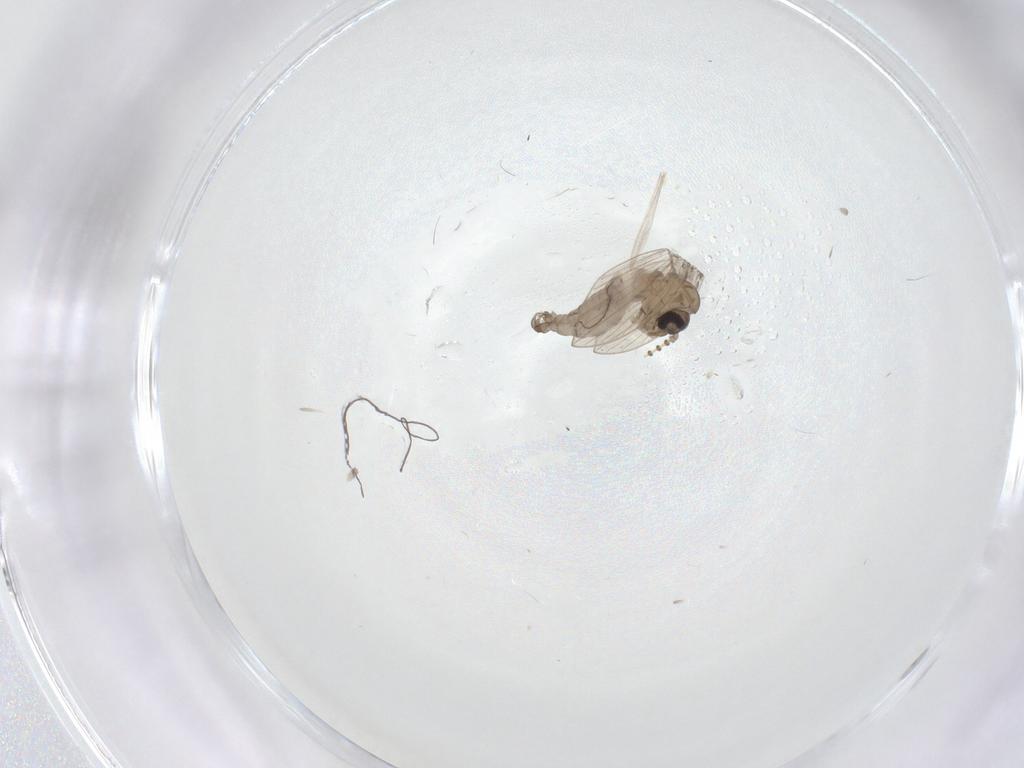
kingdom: Animalia
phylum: Arthropoda
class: Insecta
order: Diptera
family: Psychodidae
